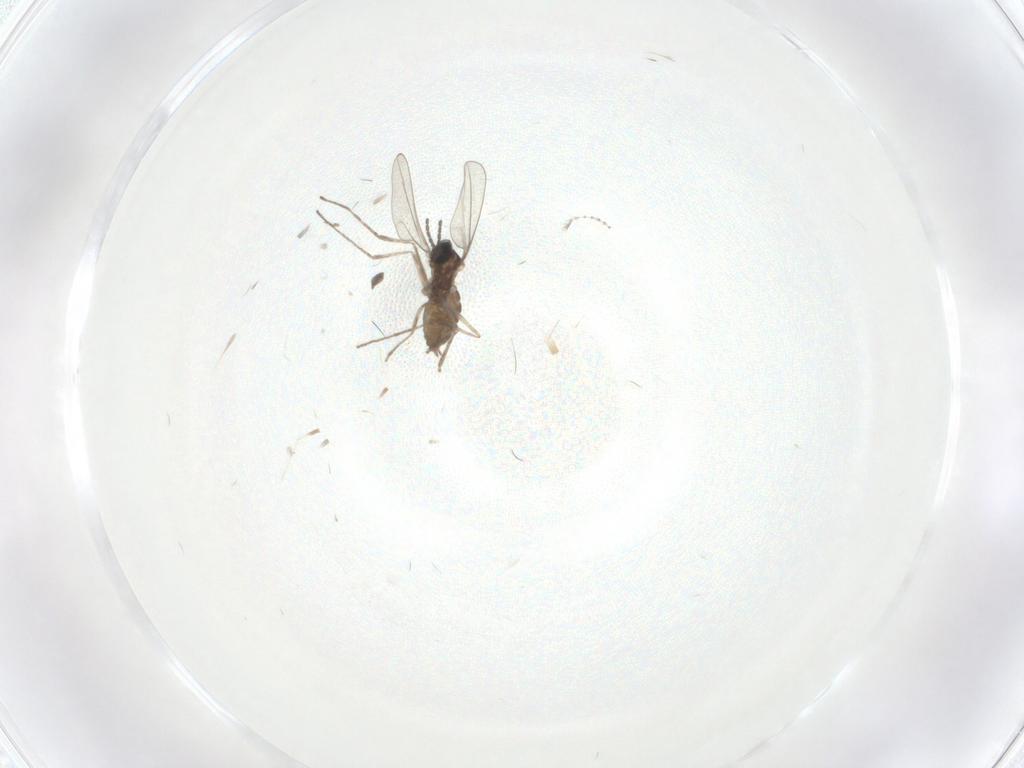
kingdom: Animalia
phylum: Arthropoda
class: Insecta
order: Diptera
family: Cecidomyiidae
